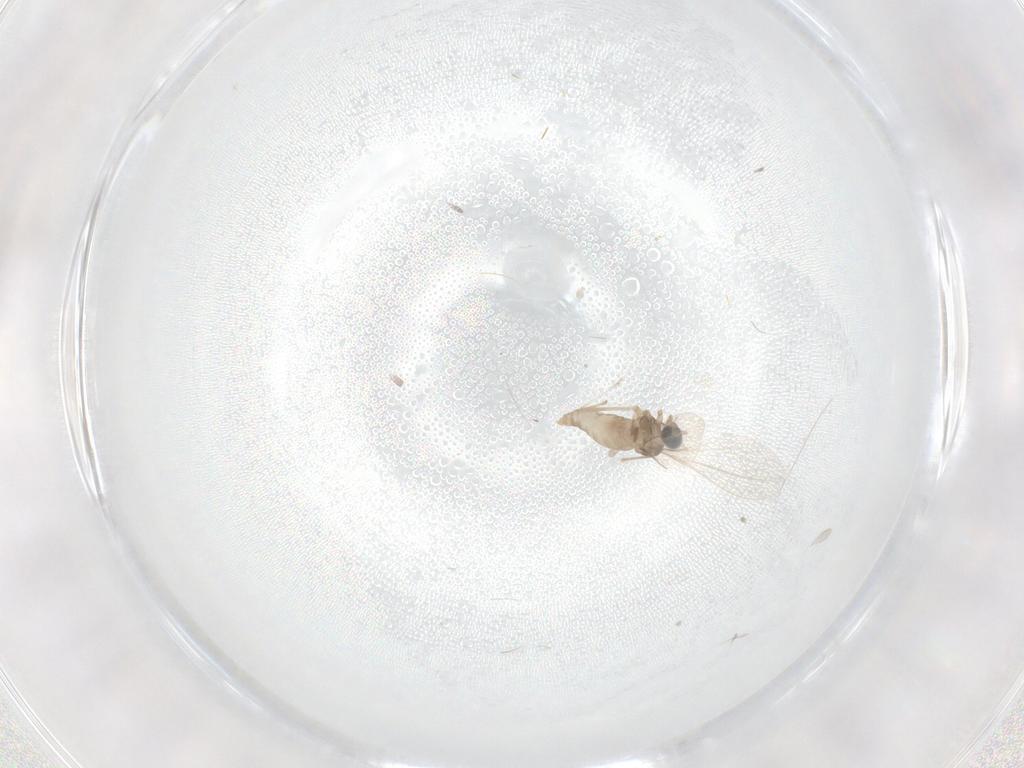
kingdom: Animalia
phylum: Arthropoda
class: Insecta
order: Diptera
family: Cecidomyiidae
